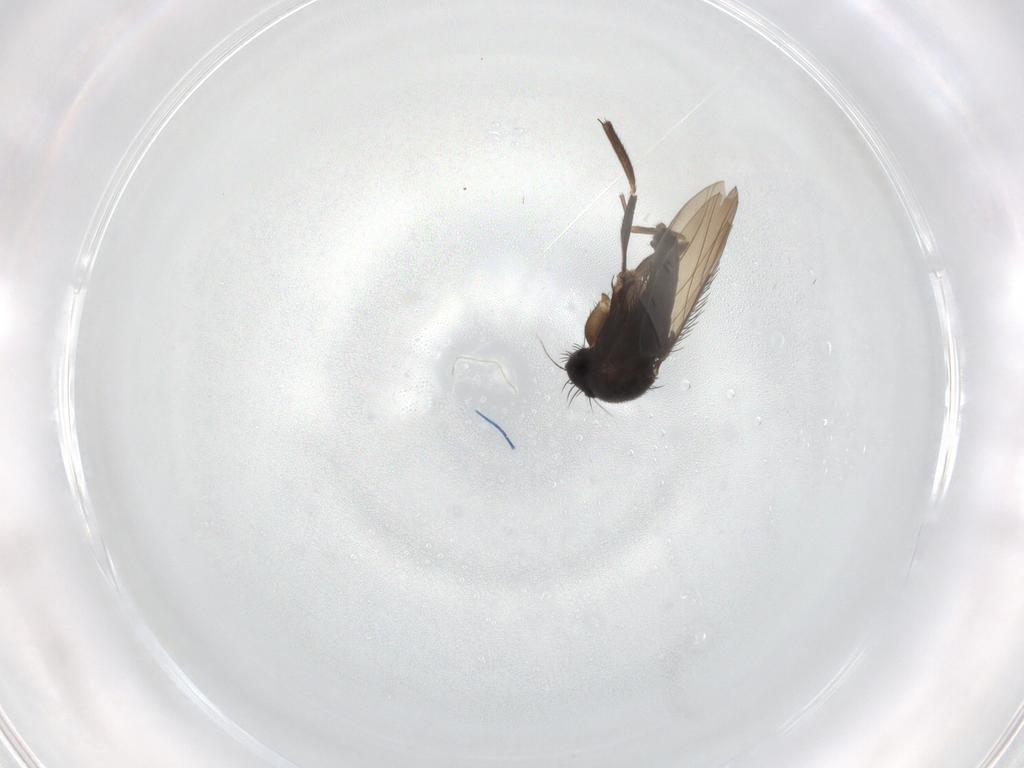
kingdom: Animalia
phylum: Arthropoda
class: Insecta
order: Diptera
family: Phoridae
